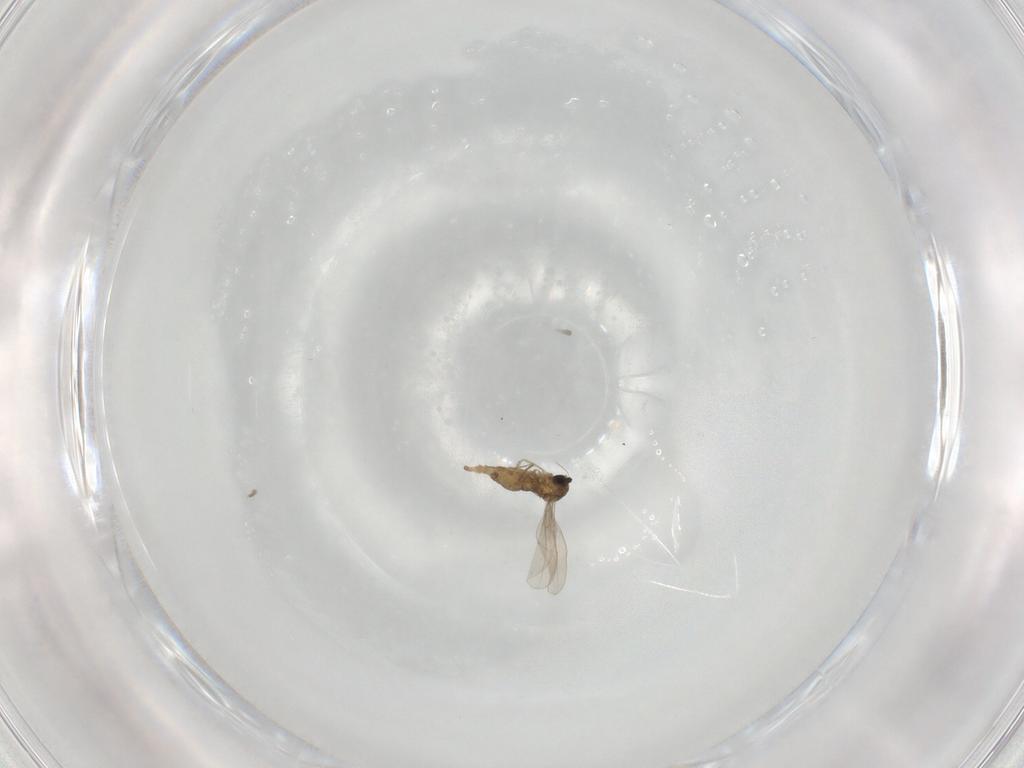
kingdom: Animalia
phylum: Arthropoda
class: Insecta
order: Diptera
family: Cecidomyiidae
